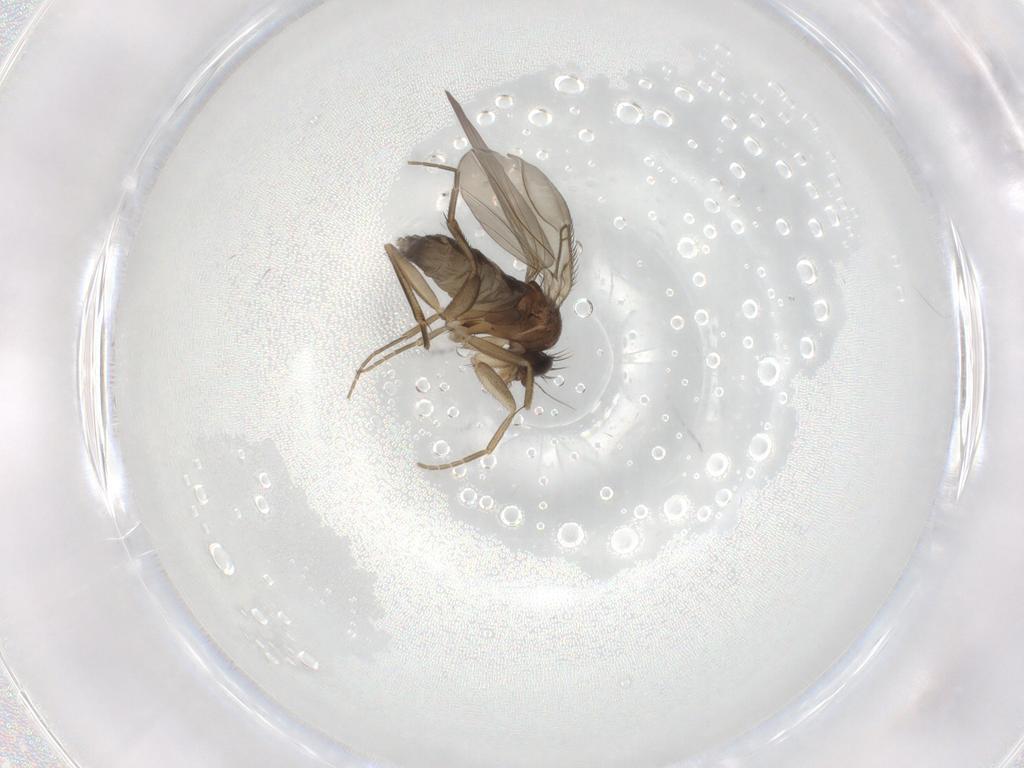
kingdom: Animalia
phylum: Arthropoda
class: Insecta
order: Diptera
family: Phoridae
